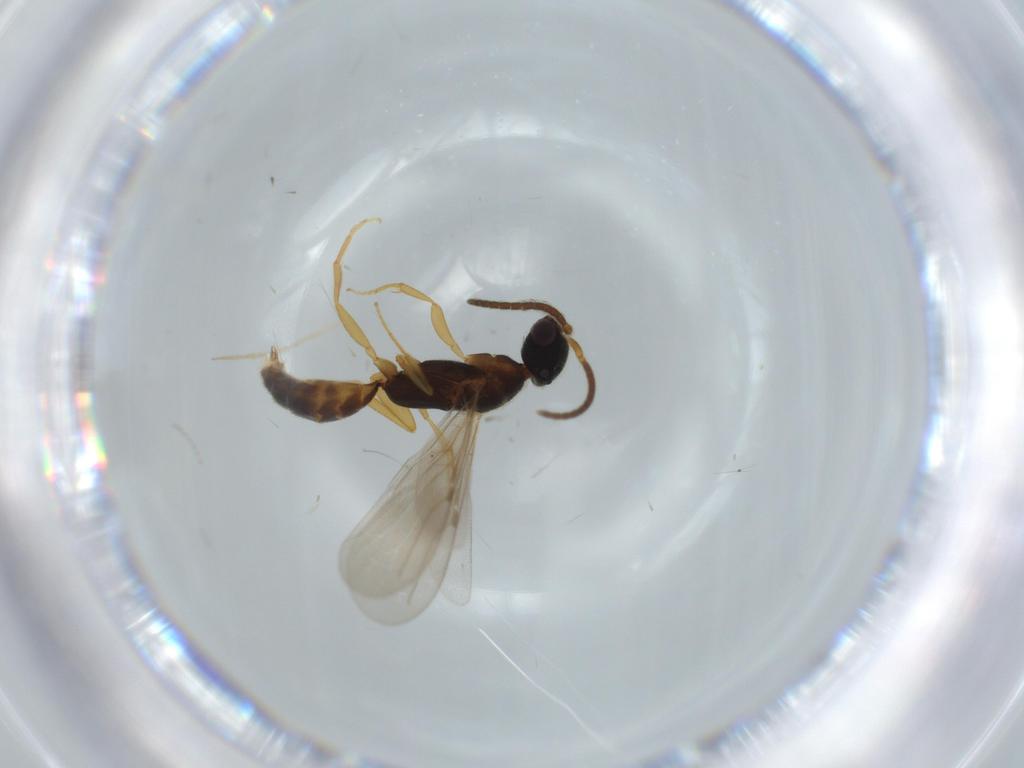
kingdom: Animalia
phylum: Arthropoda
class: Insecta
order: Hymenoptera
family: Bethylidae
